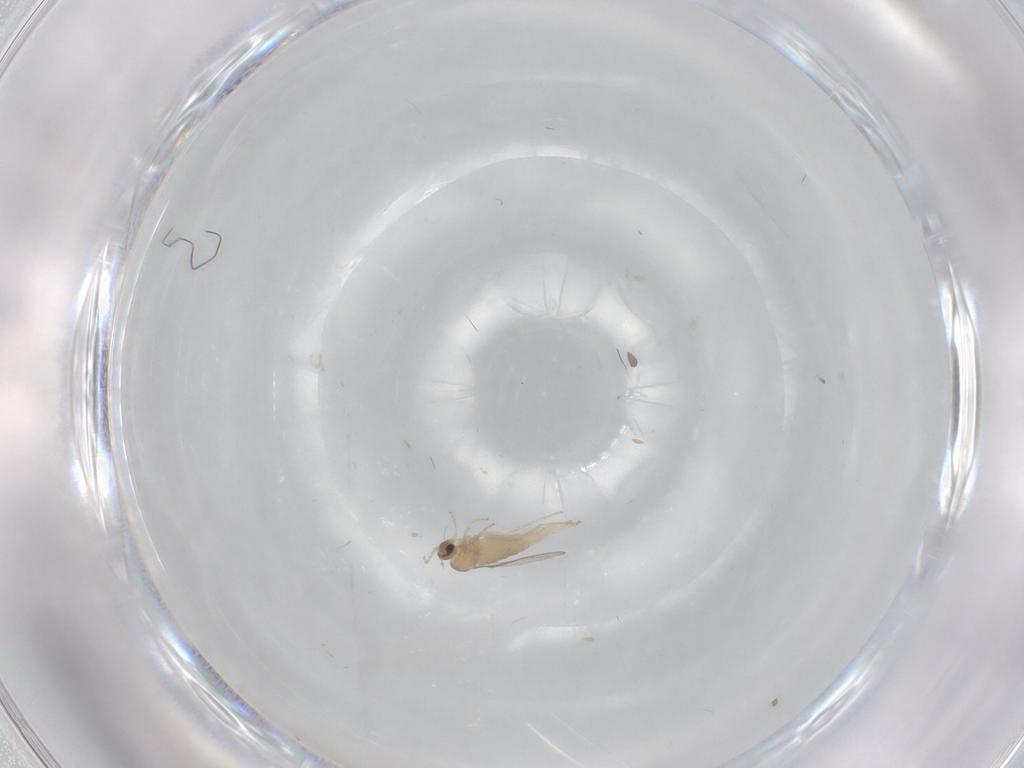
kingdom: Animalia
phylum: Arthropoda
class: Insecta
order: Diptera
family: Cecidomyiidae
